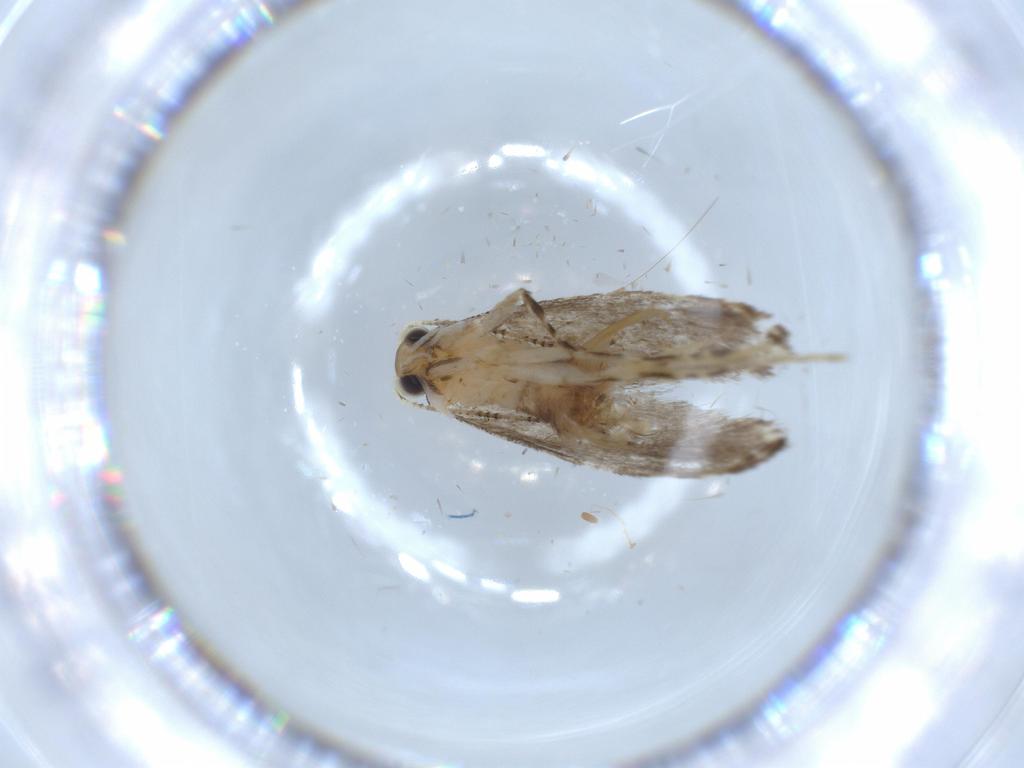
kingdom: Animalia
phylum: Arthropoda
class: Insecta
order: Lepidoptera
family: Tineidae
